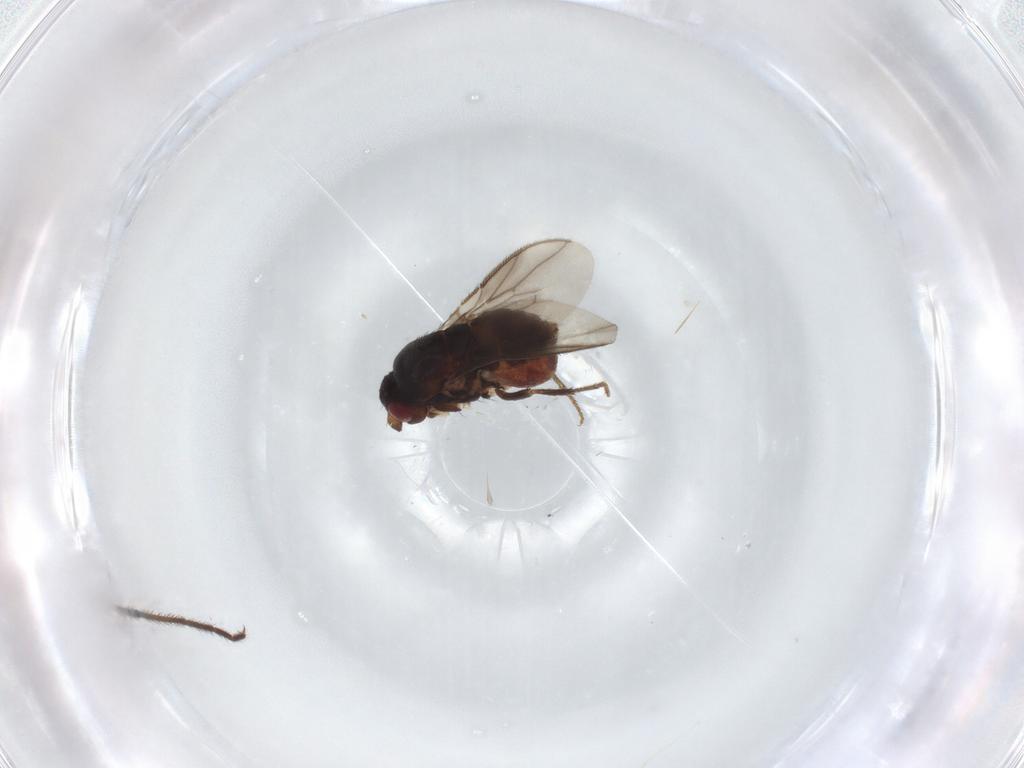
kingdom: Animalia
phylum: Arthropoda
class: Insecta
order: Diptera
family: Sphaeroceridae
